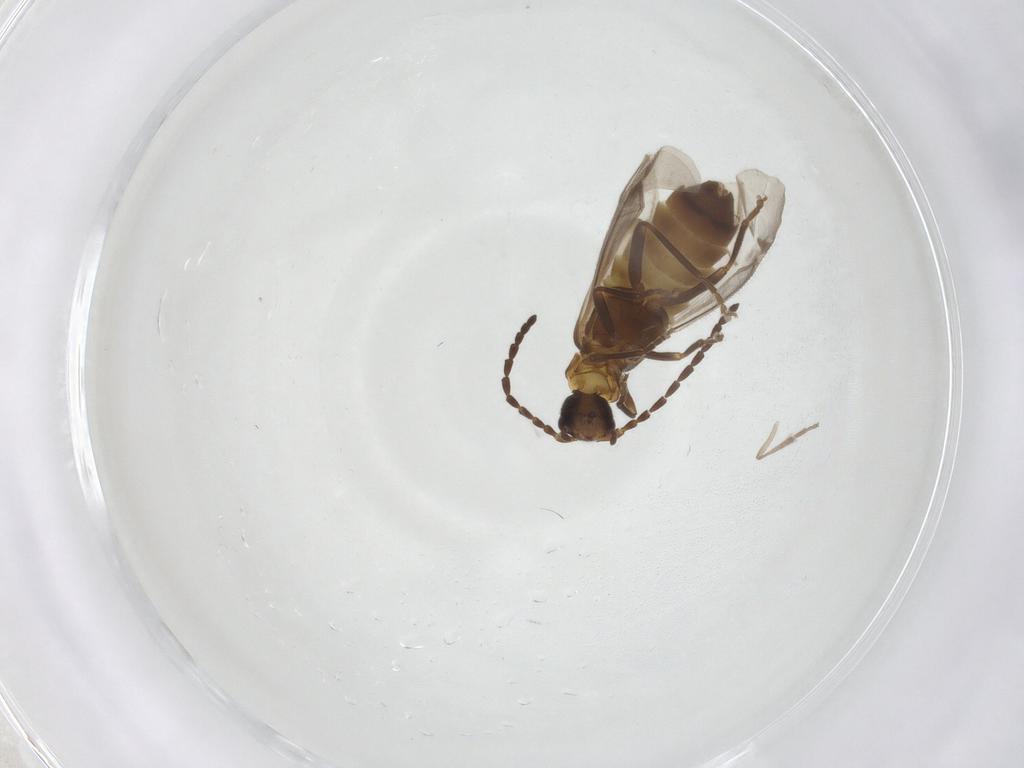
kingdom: Animalia
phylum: Arthropoda
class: Insecta
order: Coleoptera
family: Cantharidae
